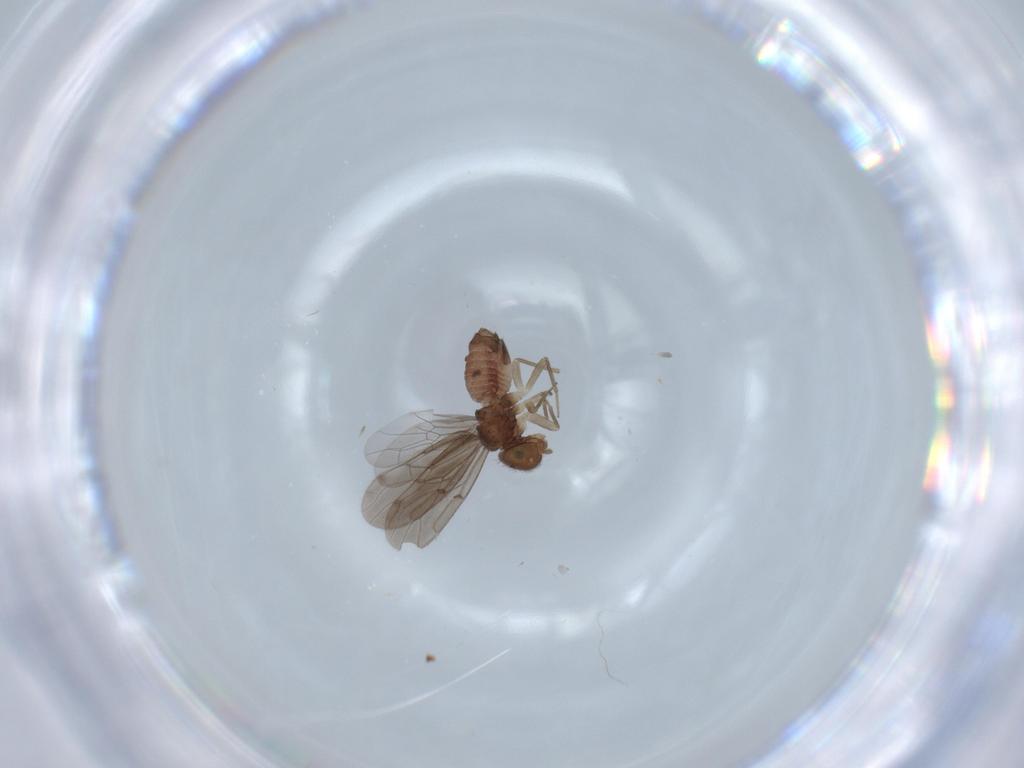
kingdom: Animalia
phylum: Arthropoda
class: Insecta
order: Psocodea
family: Ectopsocidae
